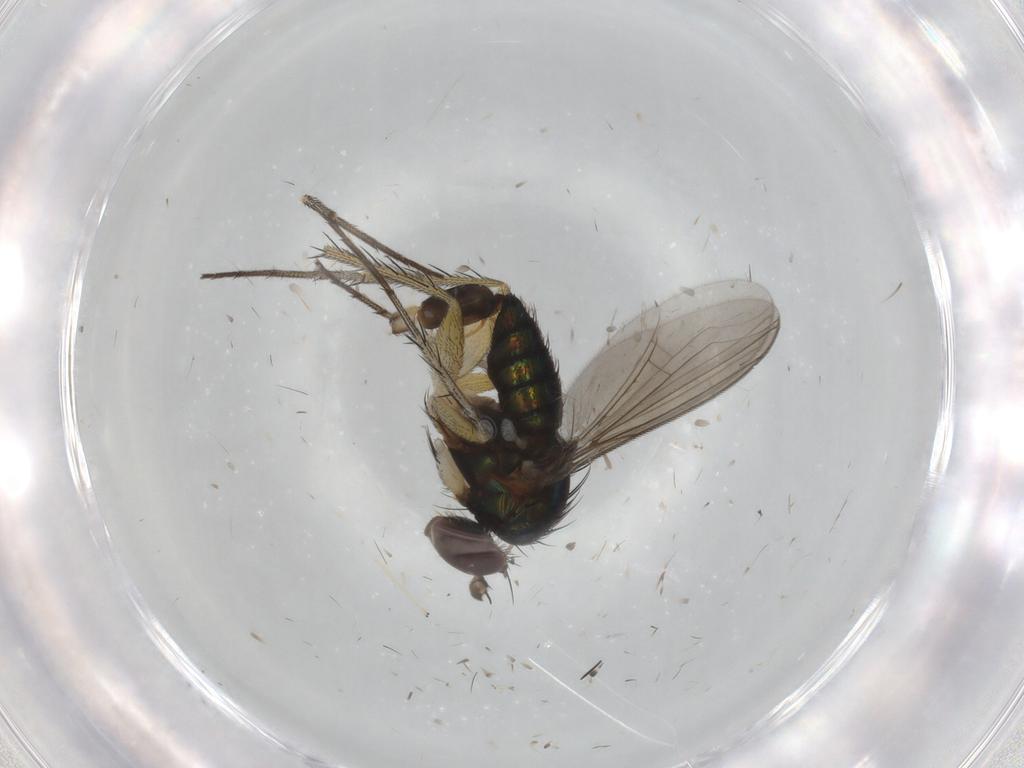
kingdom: Animalia
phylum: Arthropoda
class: Insecta
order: Diptera
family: Dolichopodidae
